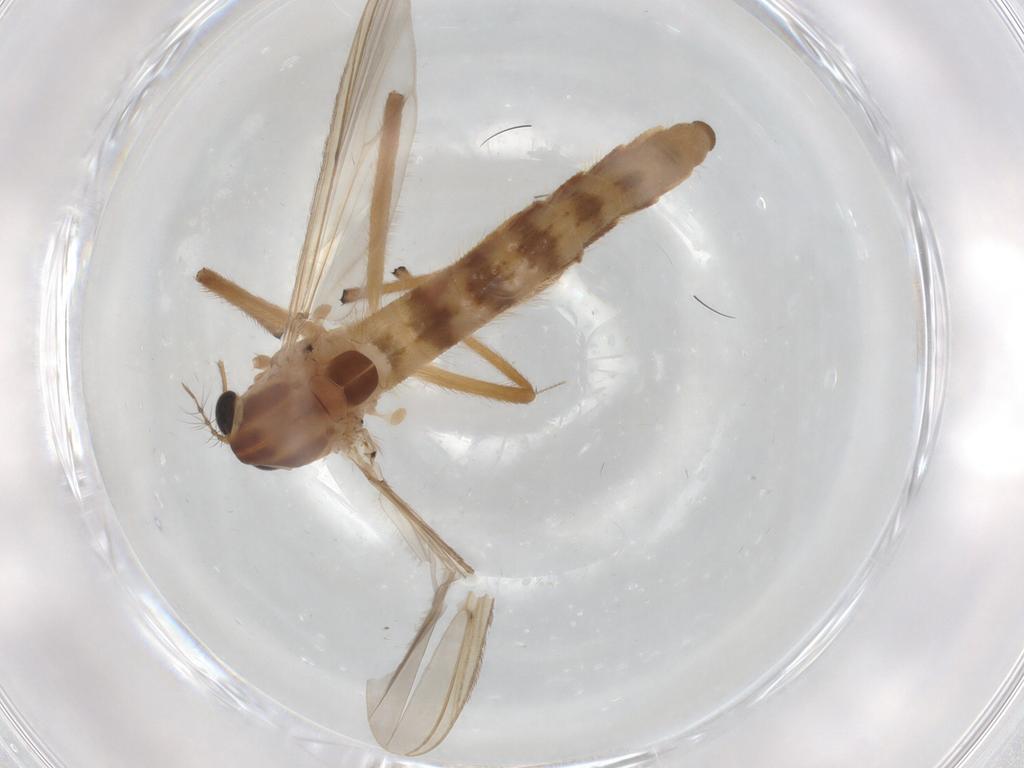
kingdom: Animalia
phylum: Arthropoda
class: Insecta
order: Diptera
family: Chironomidae
